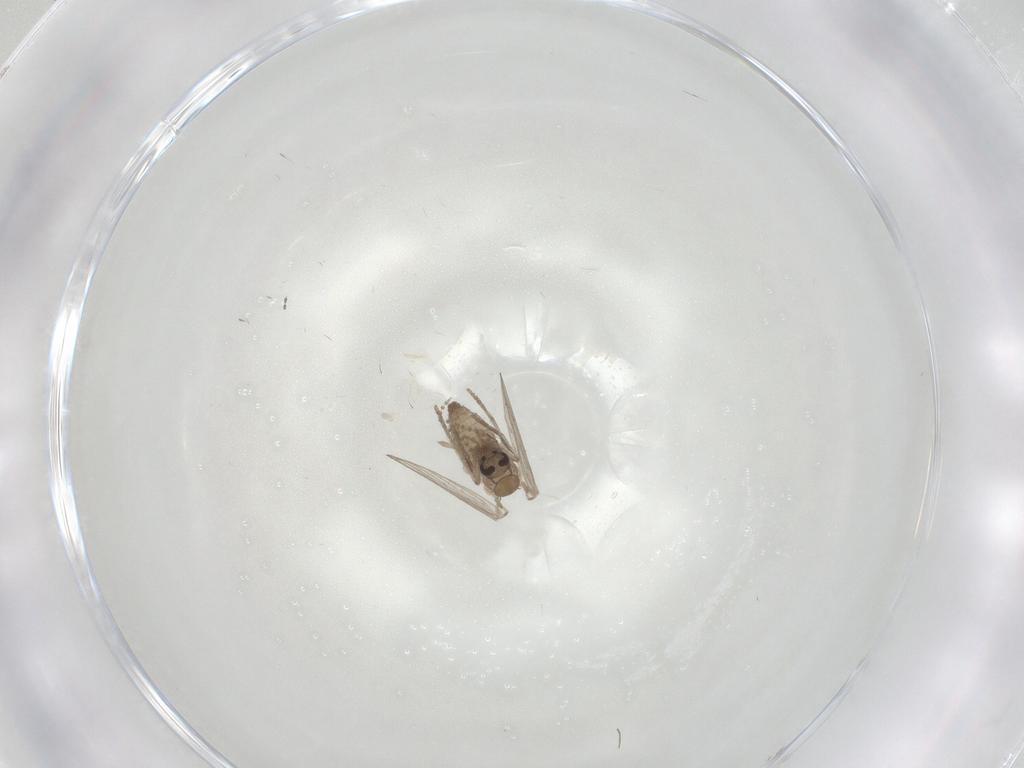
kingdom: Animalia
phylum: Arthropoda
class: Insecta
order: Diptera
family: Psychodidae
